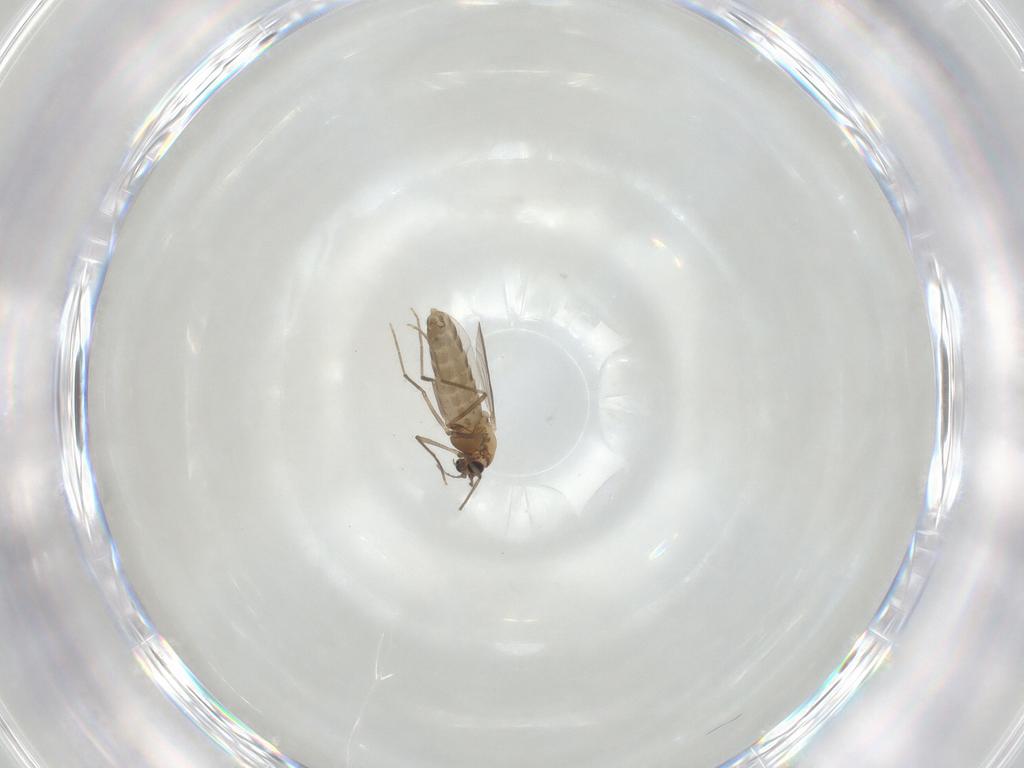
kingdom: Animalia
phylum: Arthropoda
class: Insecta
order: Diptera
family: Chironomidae
